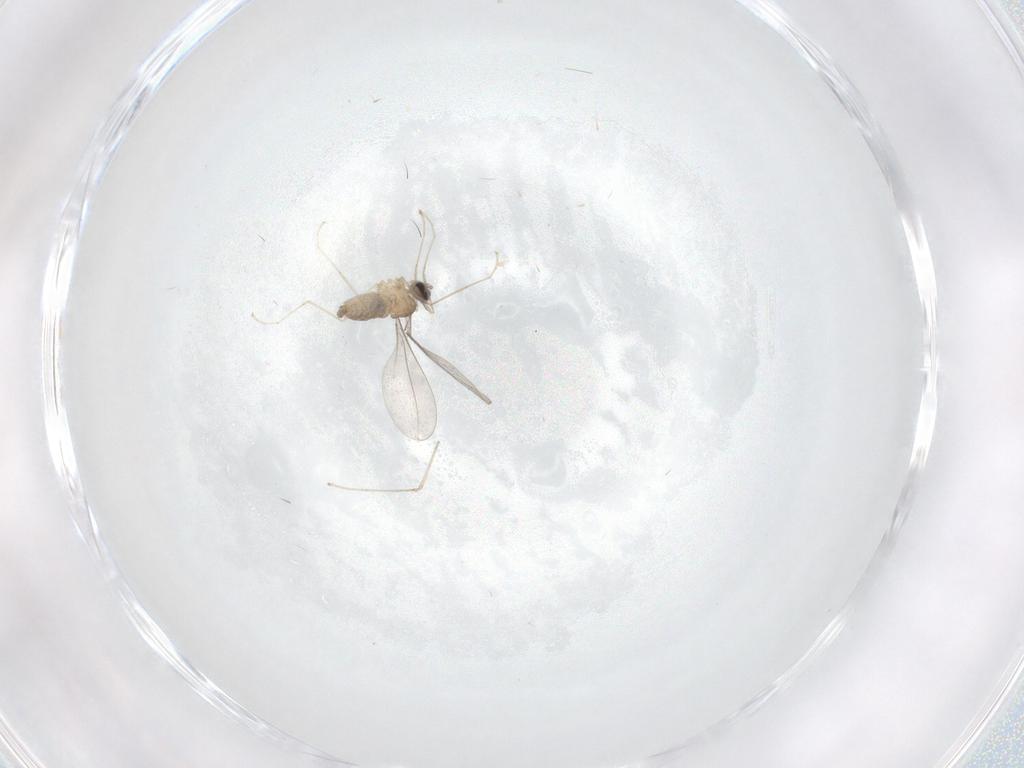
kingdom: Animalia
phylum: Arthropoda
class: Insecta
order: Diptera
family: Cecidomyiidae
